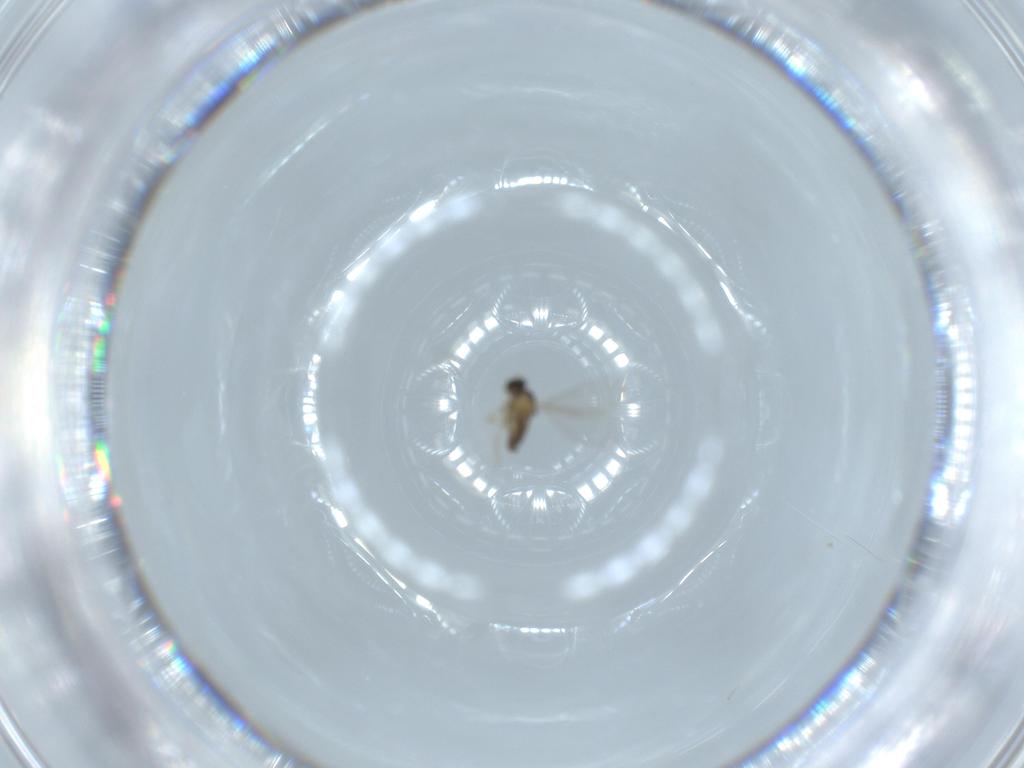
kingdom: Animalia
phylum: Arthropoda
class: Insecta
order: Diptera
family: Cecidomyiidae
